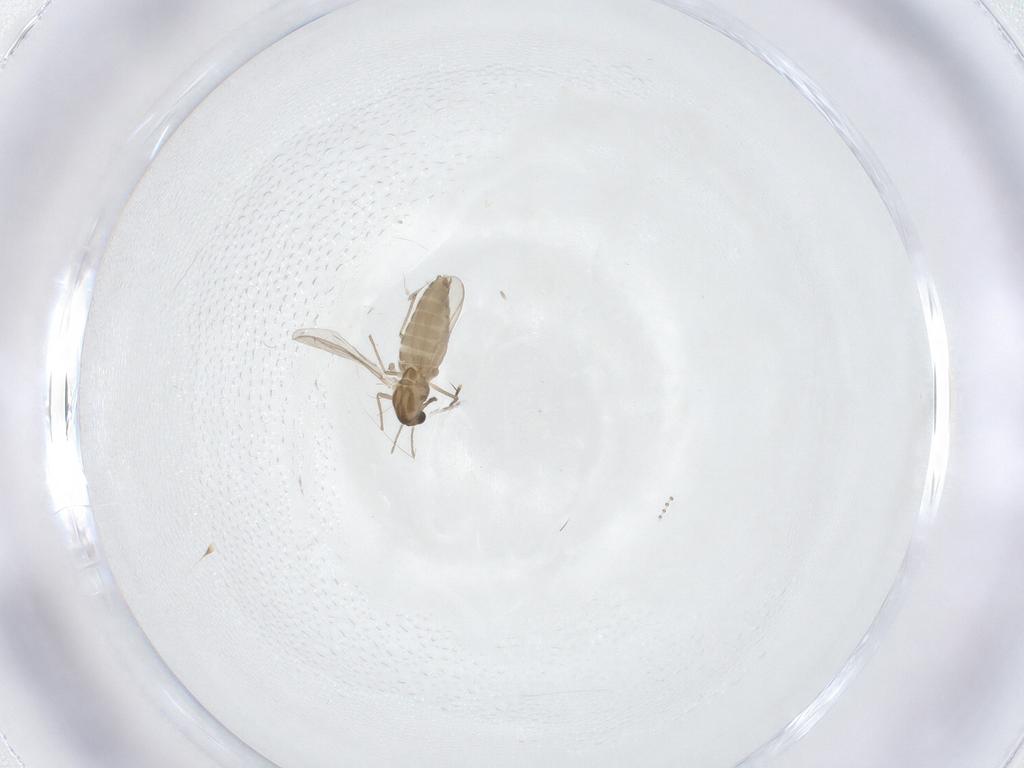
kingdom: Animalia
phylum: Arthropoda
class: Insecta
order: Diptera
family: Chironomidae
